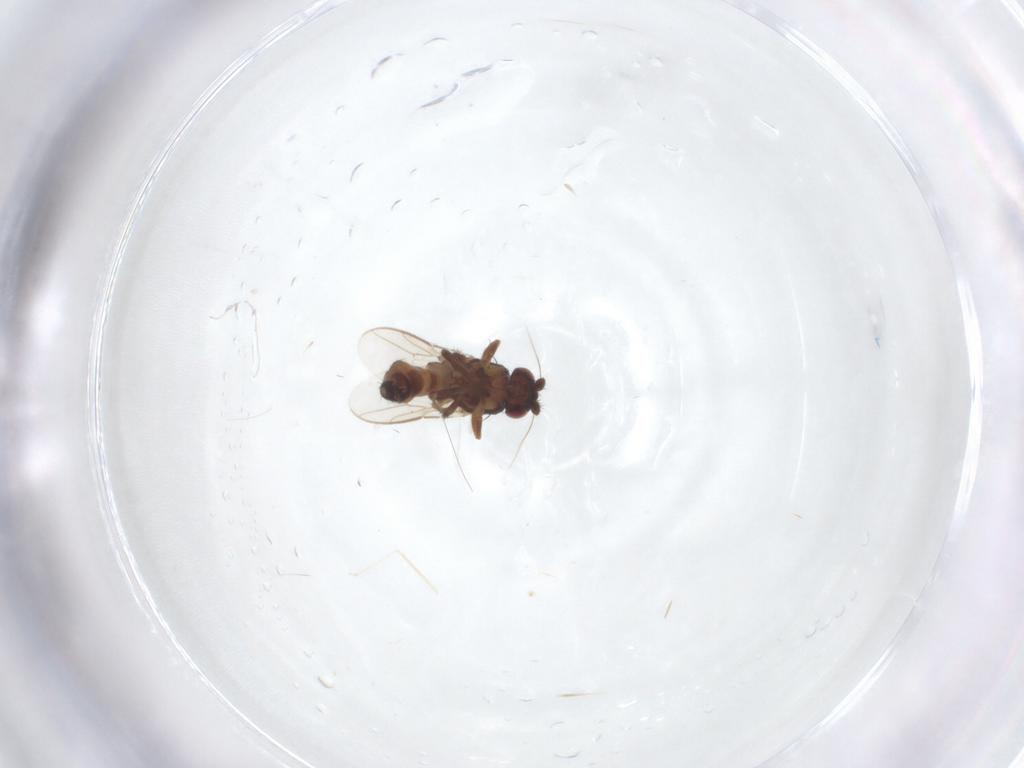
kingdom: Animalia
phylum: Arthropoda
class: Insecta
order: Diptera
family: Sphaeroceridae
